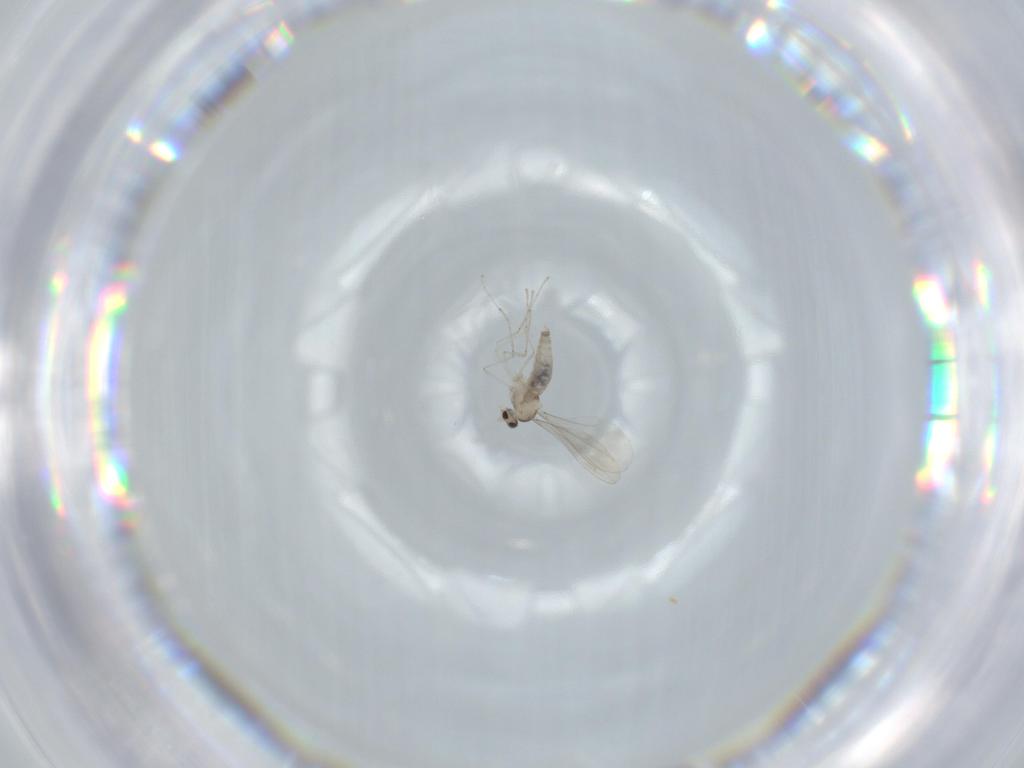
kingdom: Animalia
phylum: Arthropoda
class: Insecta
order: Diptera
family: Cecidomyiidae
